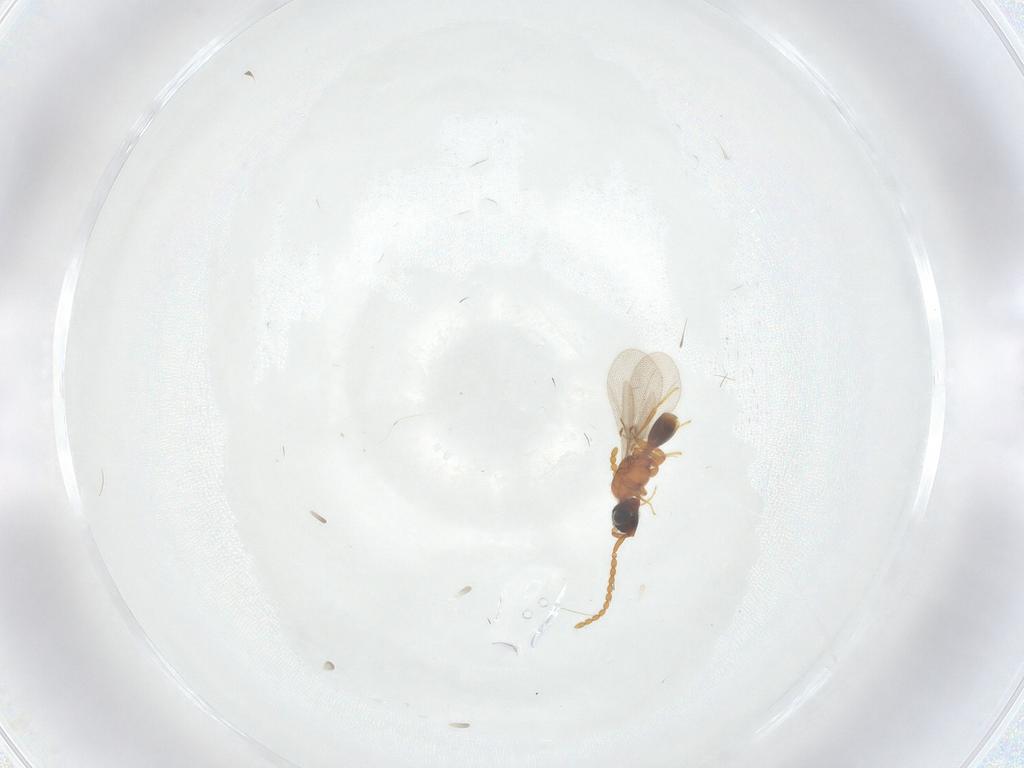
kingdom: Animalia
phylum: Arthropoda
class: Insecta
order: Hymenoptera
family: Diapriidae
